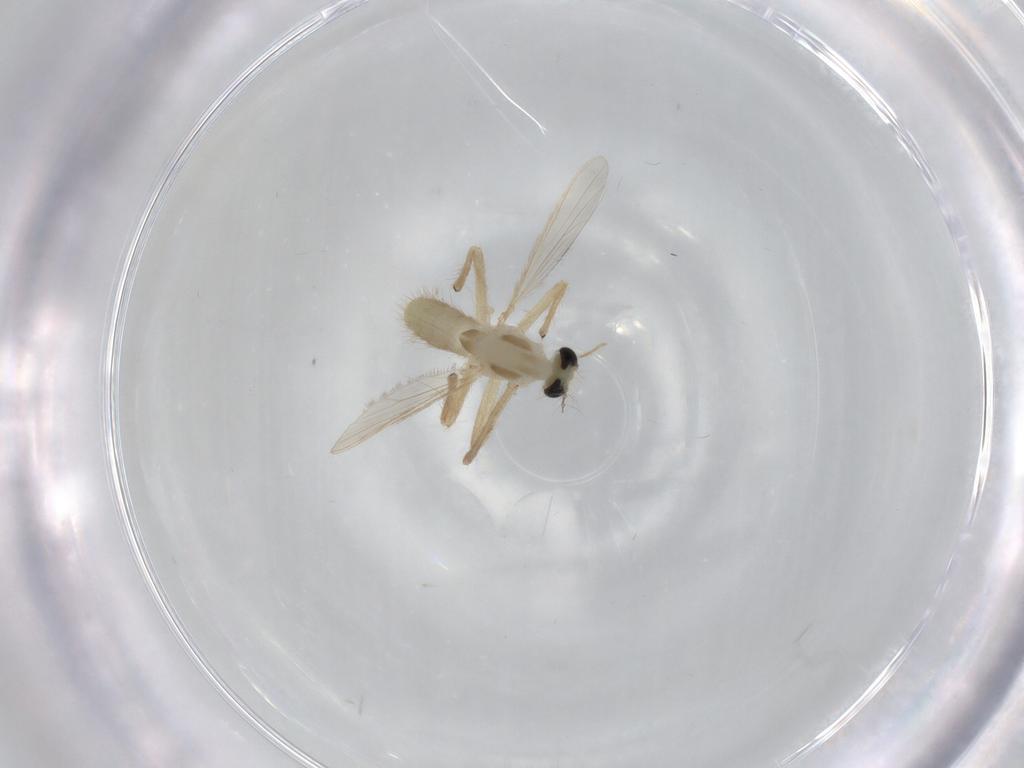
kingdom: Animalia
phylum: Arthropoda
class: Insecta
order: Diptera
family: Chironomidae
